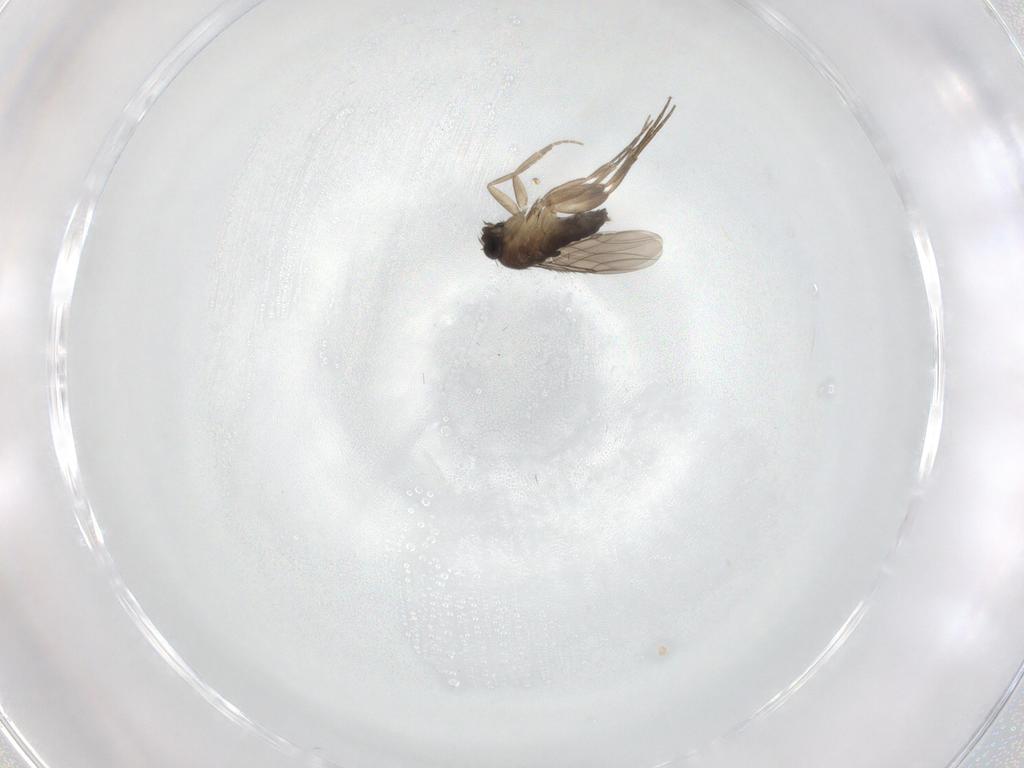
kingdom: Animalia
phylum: Arthropoda
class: Insecta
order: Diptera
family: Phoridae
